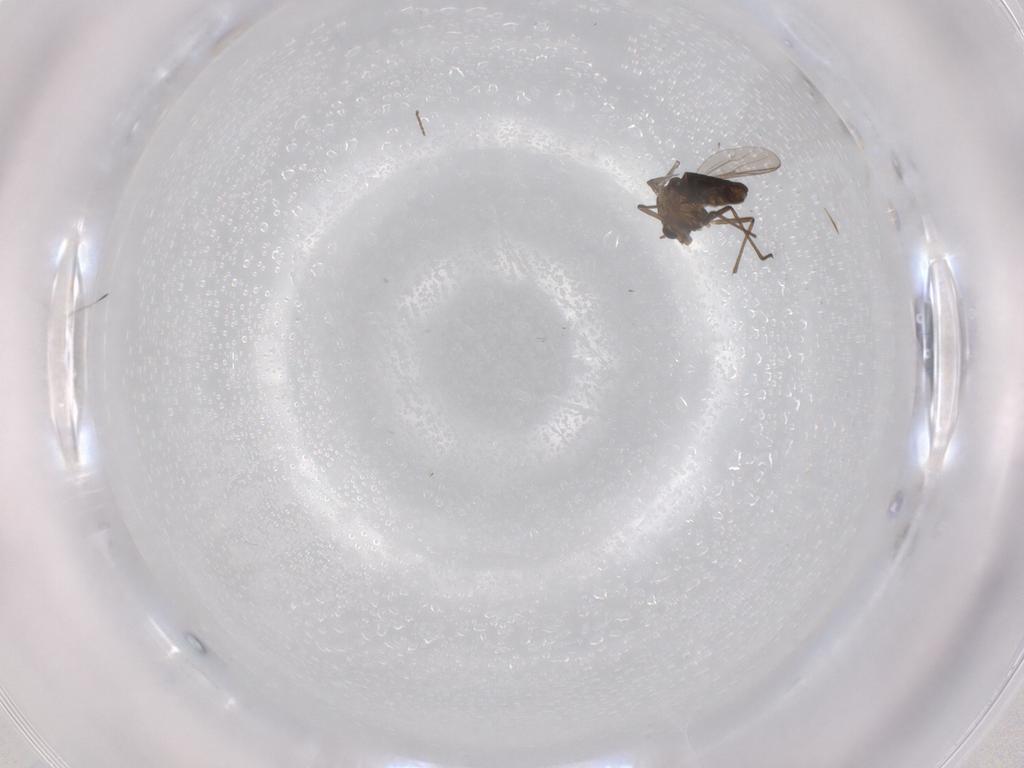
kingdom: Animalia
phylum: Arthropoda
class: Insecta
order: Diptera
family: Chironomidae
